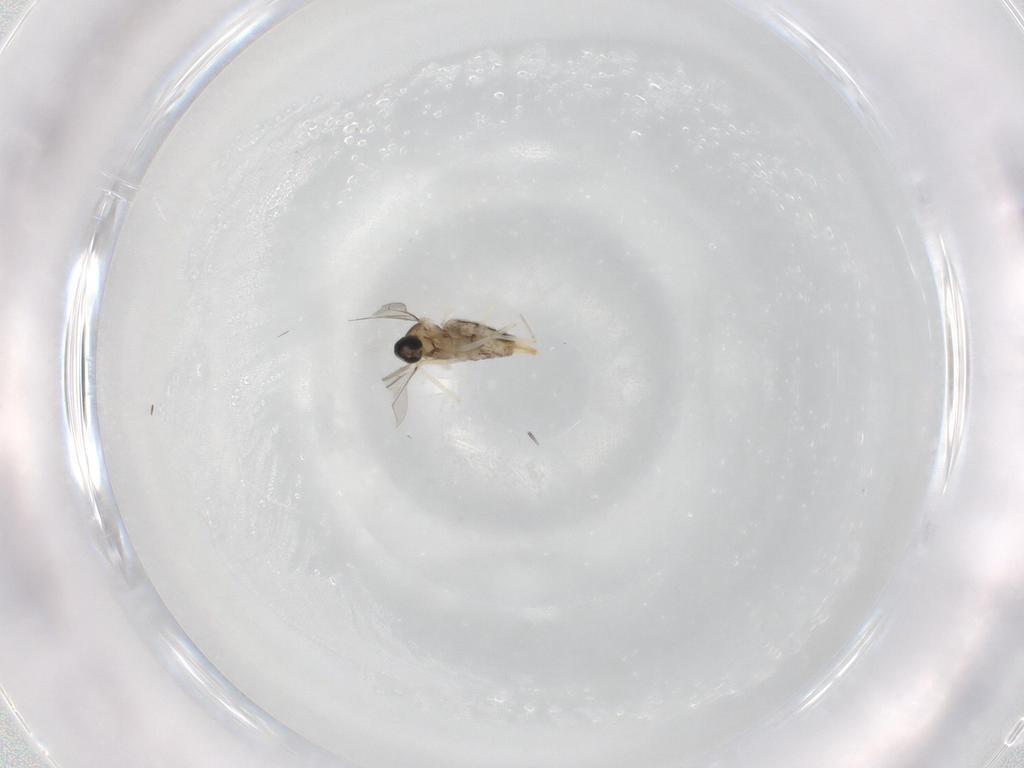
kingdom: Animalia
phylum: Arthropoda
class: Insecta
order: Diptera
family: Cecidomyiidae
